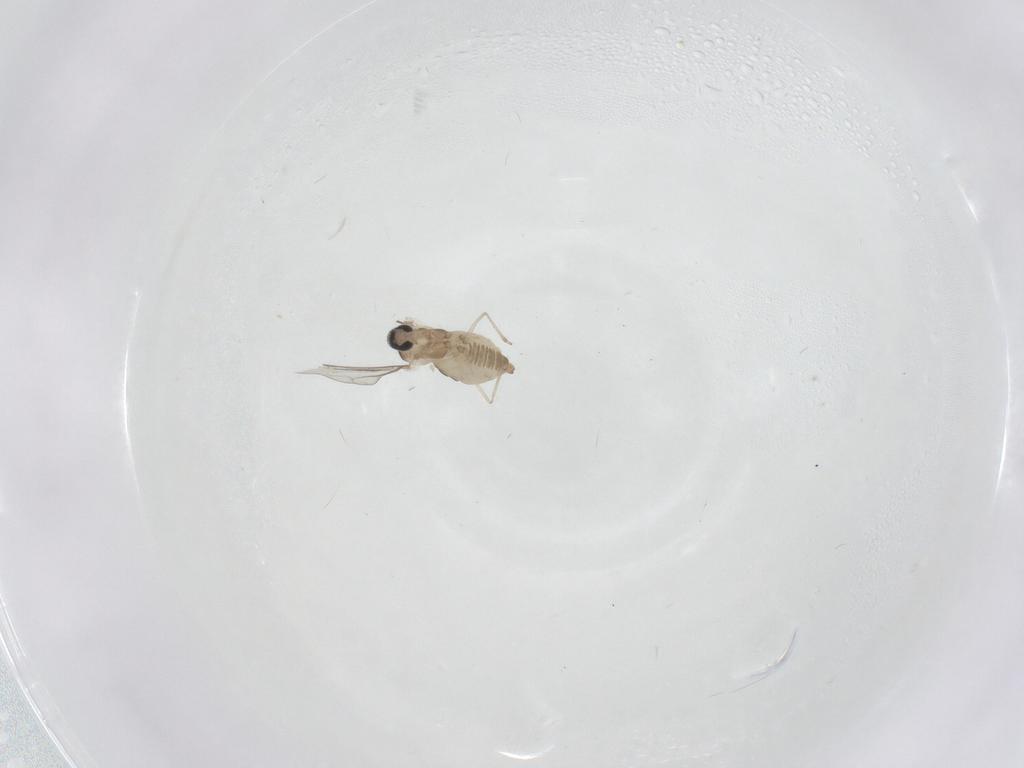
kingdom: Animalia
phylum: Arthropoda
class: Insecta
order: Diptera
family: Cecidomyiidae
